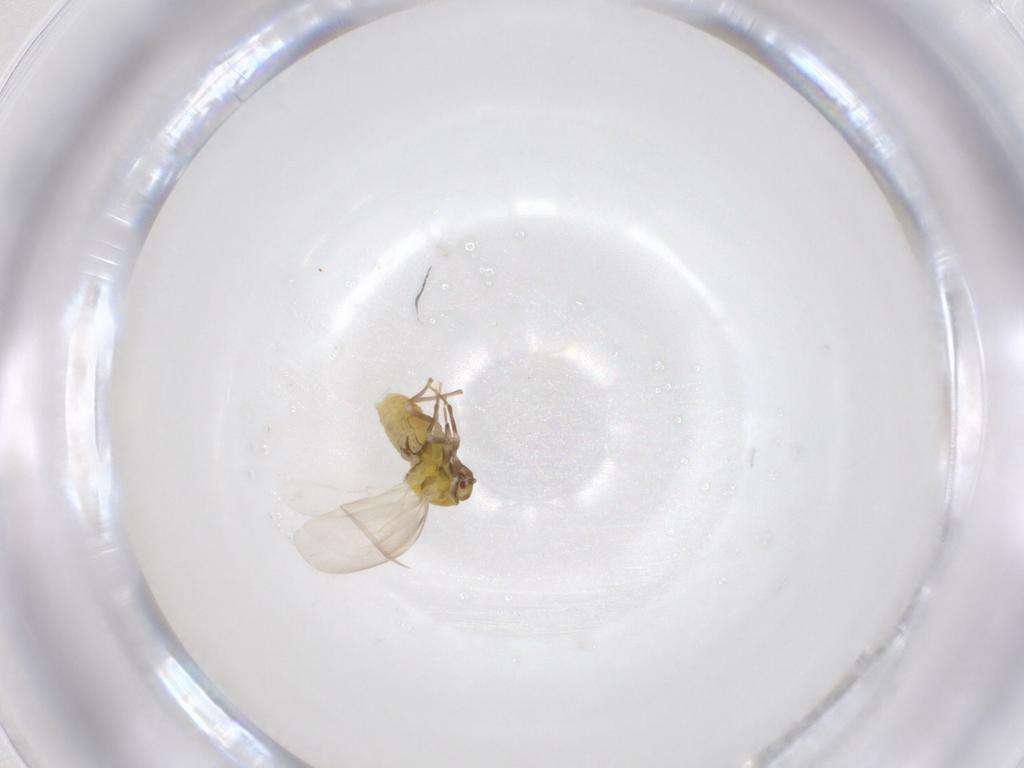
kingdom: Animalia
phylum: Arthropoda
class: Insecta
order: Hemiptera
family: Aleyrodidae
